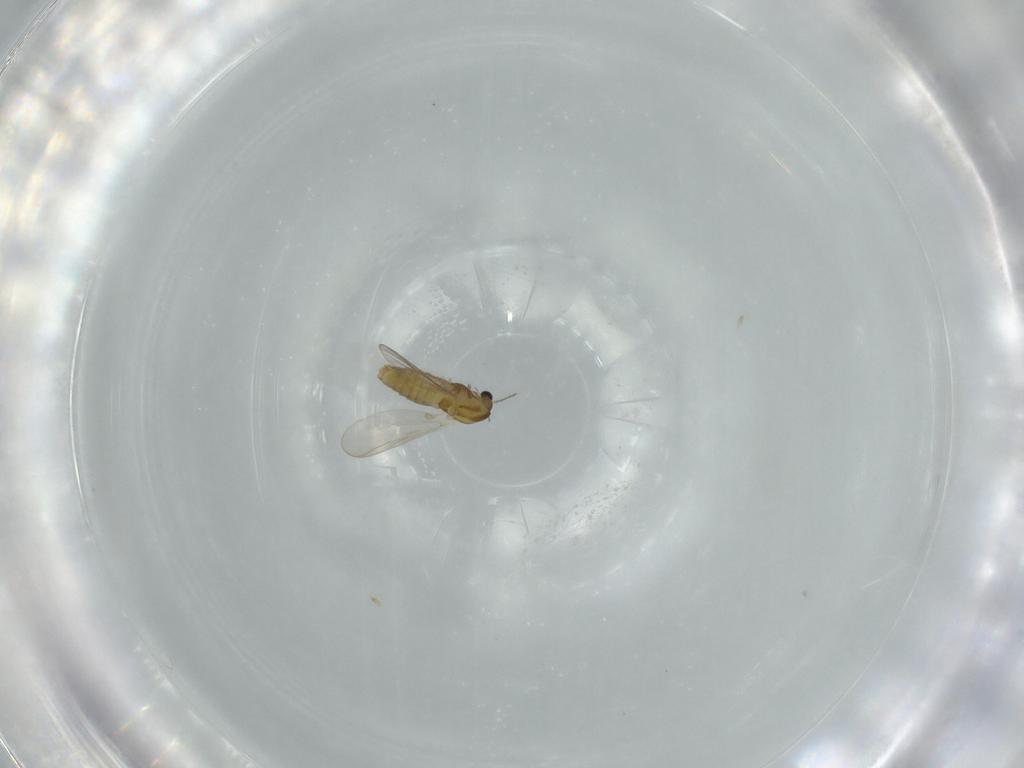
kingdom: Animalia
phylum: Arthropoda
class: Insecta
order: Diptera
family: Chironomidae
